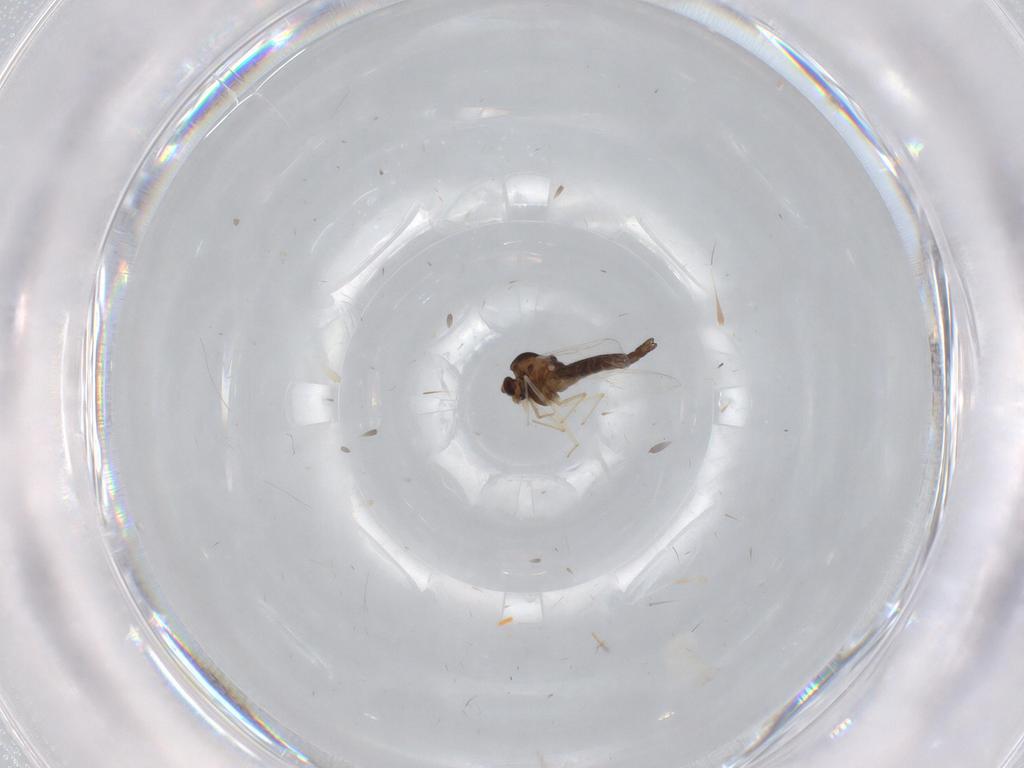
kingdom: Animalia
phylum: Arthropoda
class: Insecta
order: Diptera
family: Chironomidae
